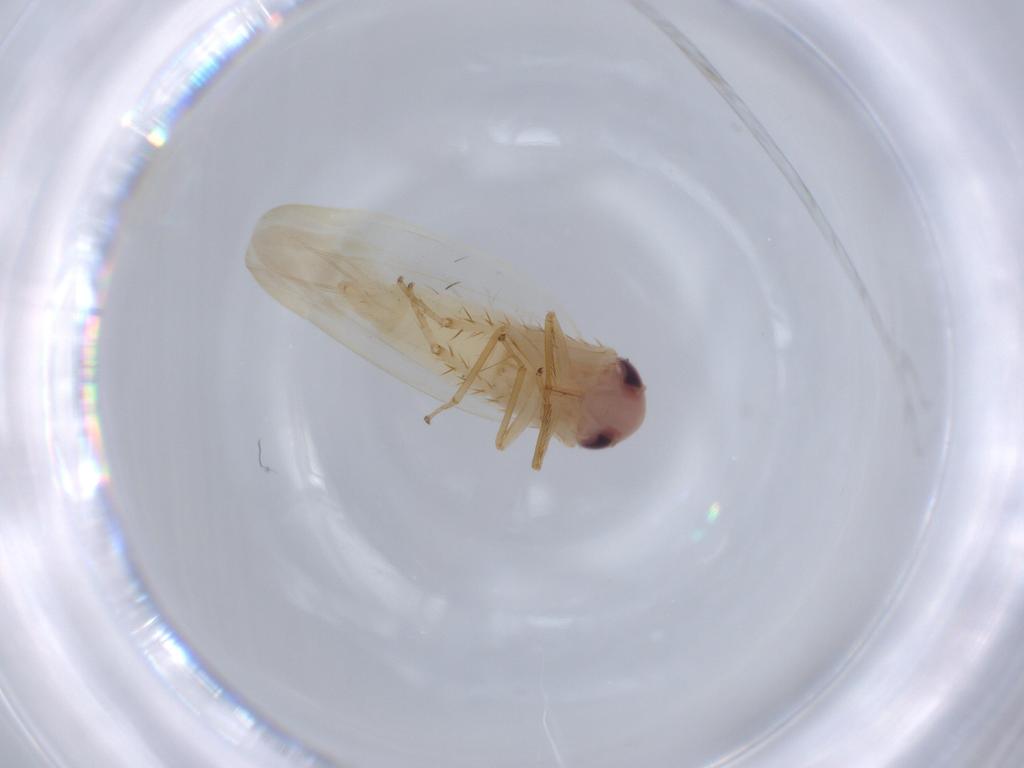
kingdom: Animalia
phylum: Arthropoda
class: Insecta
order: Hemiptera
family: Cicadellidae
